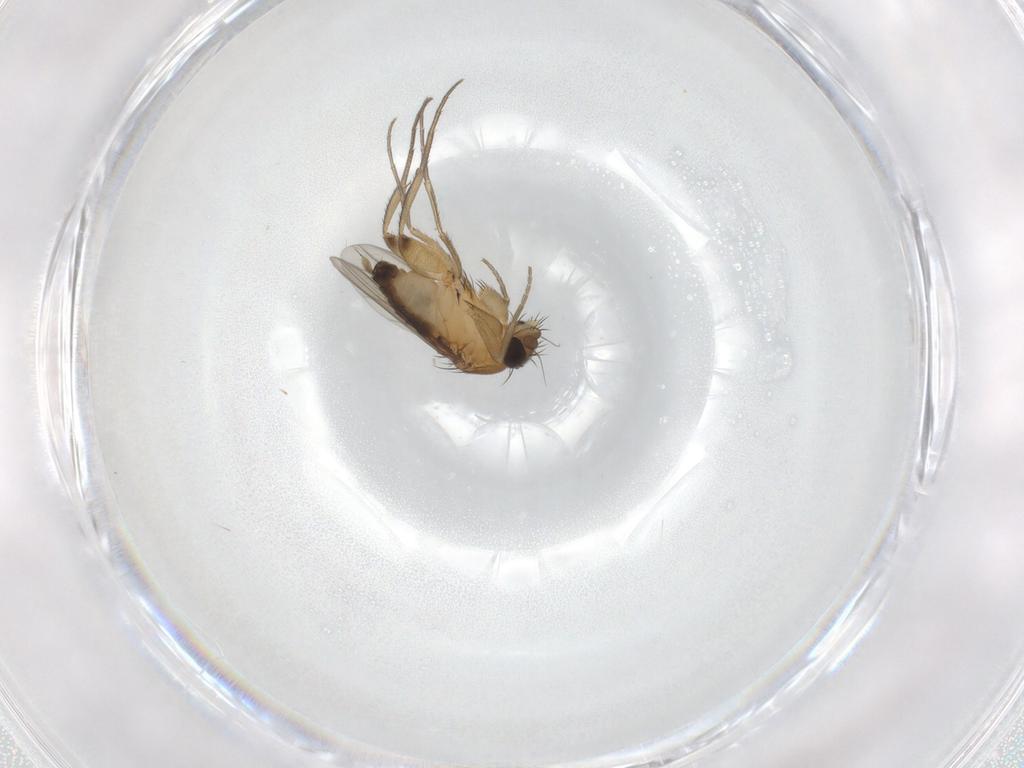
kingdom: Animalia
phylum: Arthropoda
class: Insecta
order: Diptera
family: Phoridae
